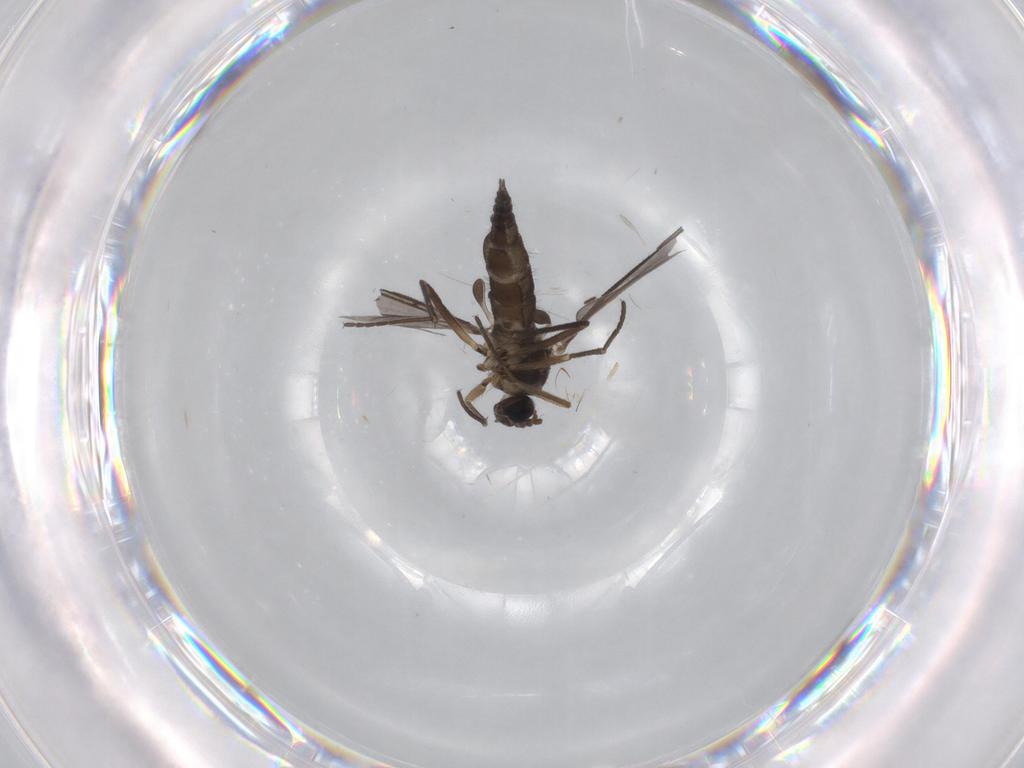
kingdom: Animalia
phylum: Arthropoda
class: Insecta
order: Diptera
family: Sciaridae
